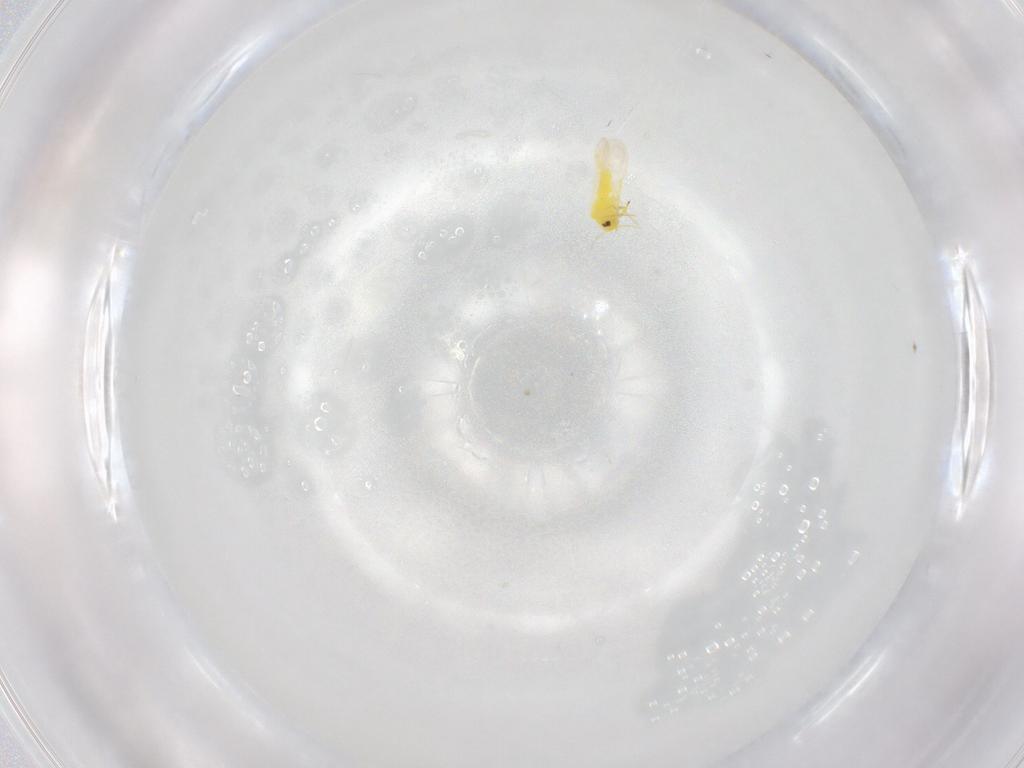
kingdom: Animalia
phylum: Arthropoda
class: Insecta
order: Hemiptera
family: Aleyrodidae
